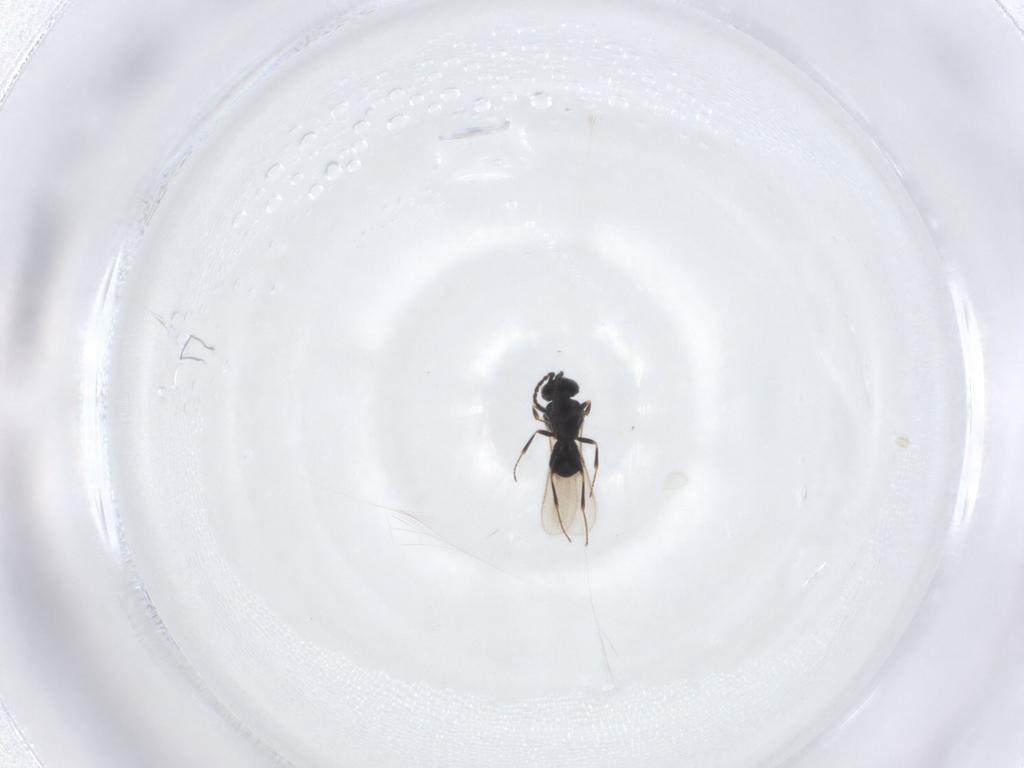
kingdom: Animalia
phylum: Arthropoda
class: Insecta
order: Hymenoptera
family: Scelionidae
